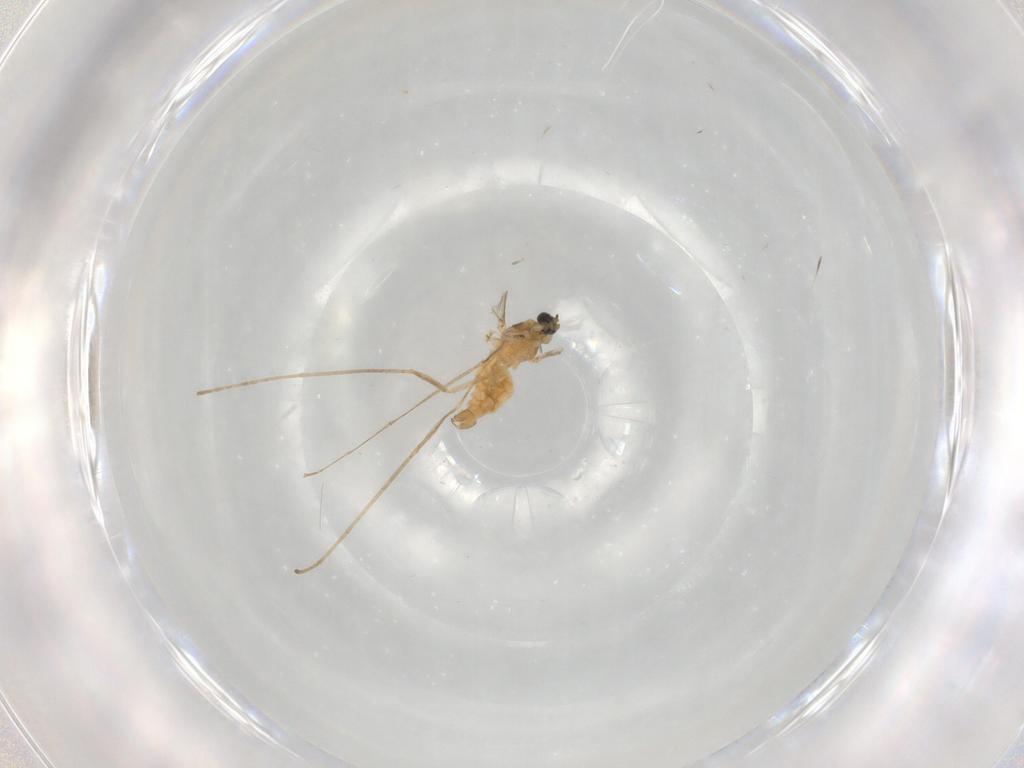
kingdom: Animalia
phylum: Arthropoda
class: Insecta
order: Diptera
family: Cecidomyiidae
